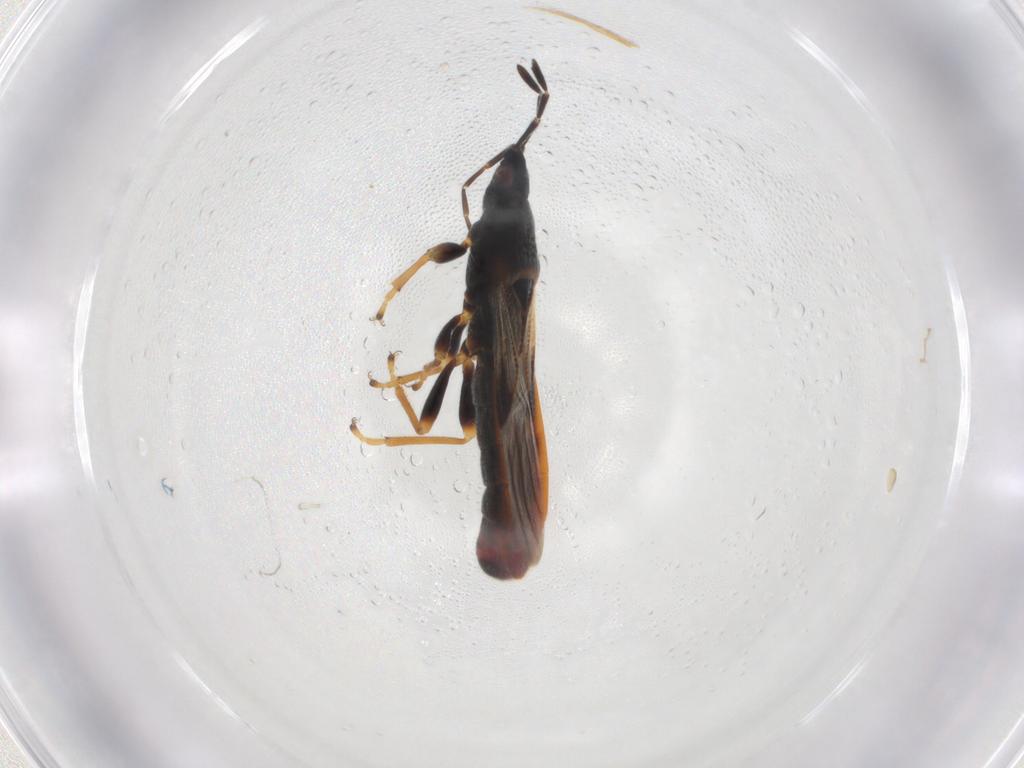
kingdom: Animalia
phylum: Arthropoda
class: Insecta
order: Hemiptera
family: Blissidae
